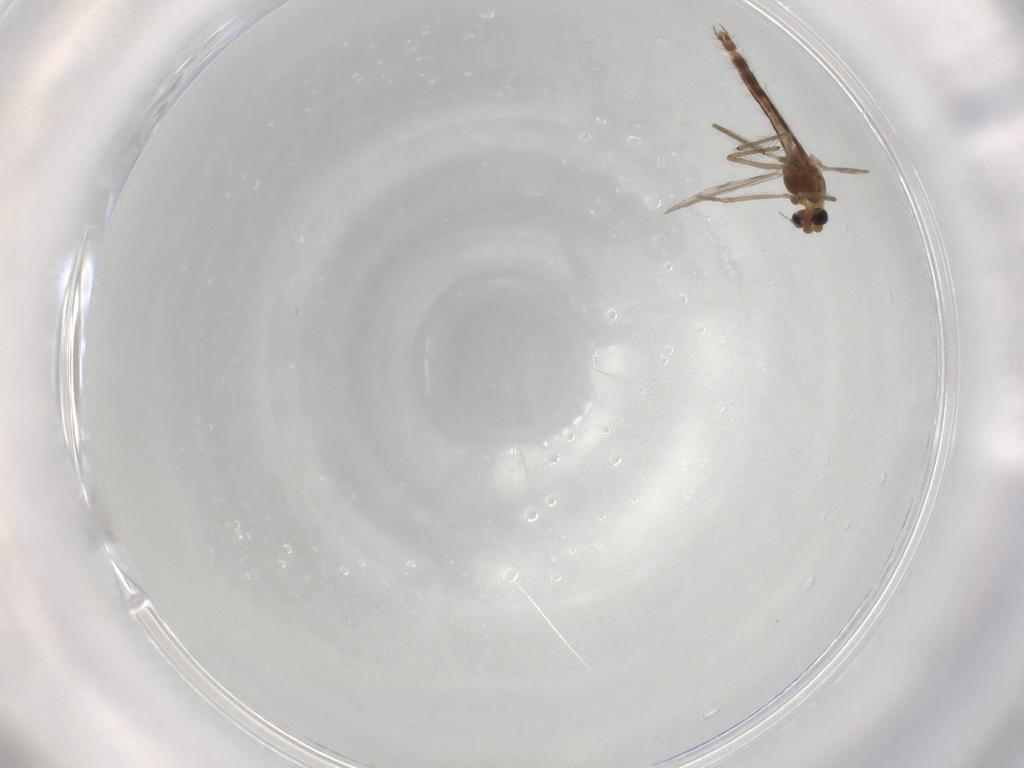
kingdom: Animalia
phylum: Arthropoda
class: Insecta
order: Diptera
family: Chironomidae
